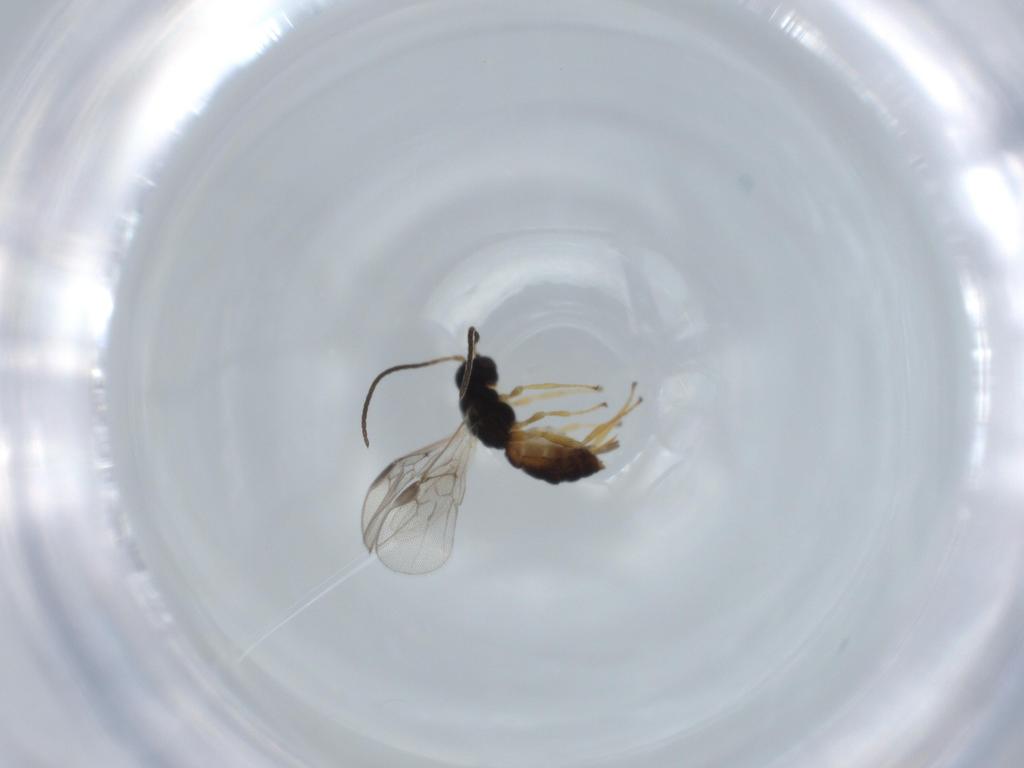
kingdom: Animalia
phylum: Arthropoda
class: Insecta
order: Hymenoptera
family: Braconidae
